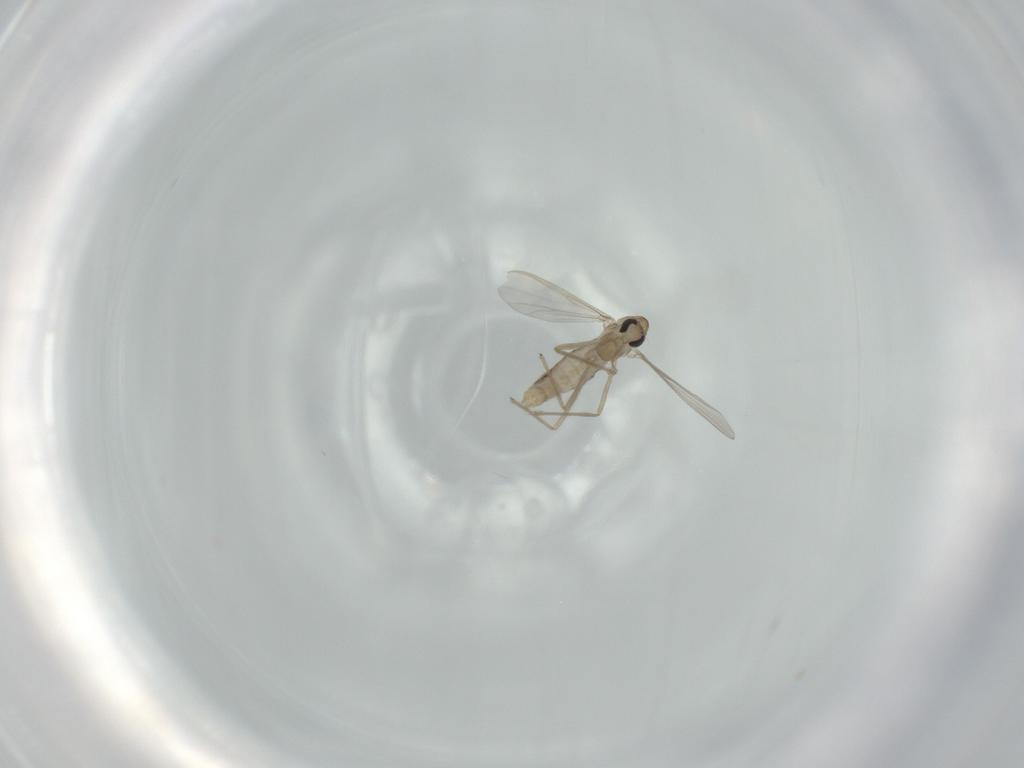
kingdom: Animalia
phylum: Arthropoda
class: Insecta
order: Diptera
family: Chironomidae
